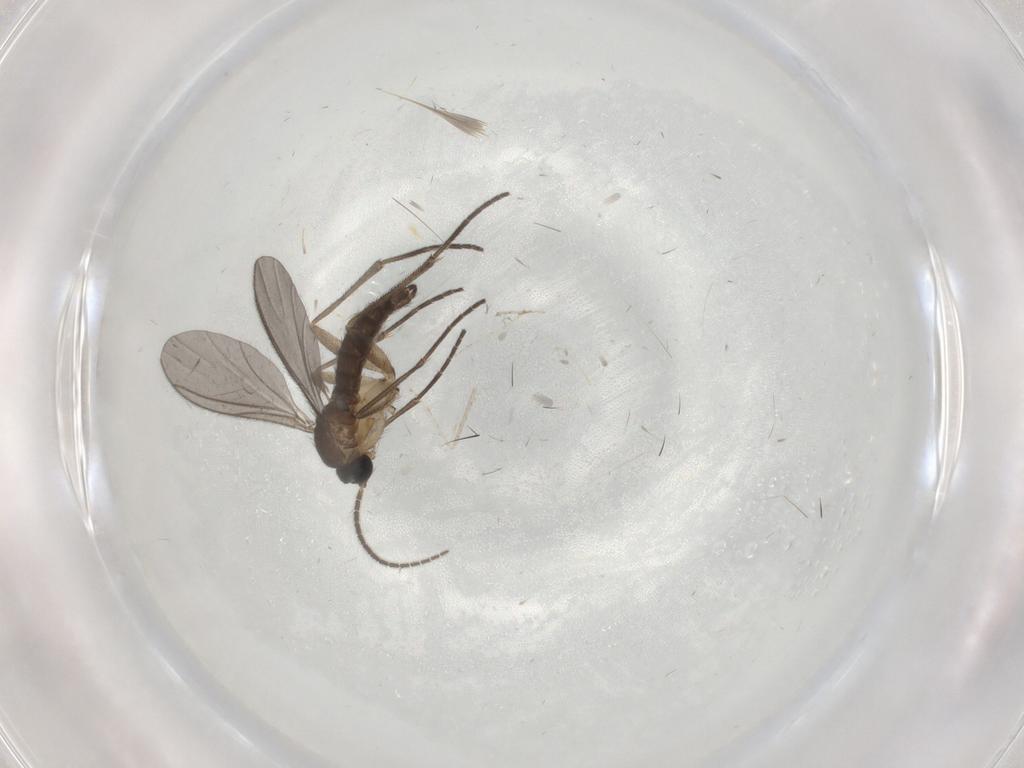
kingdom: Animalia
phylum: Arthropoda
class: Insecta
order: Diptera
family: Sciaridae
